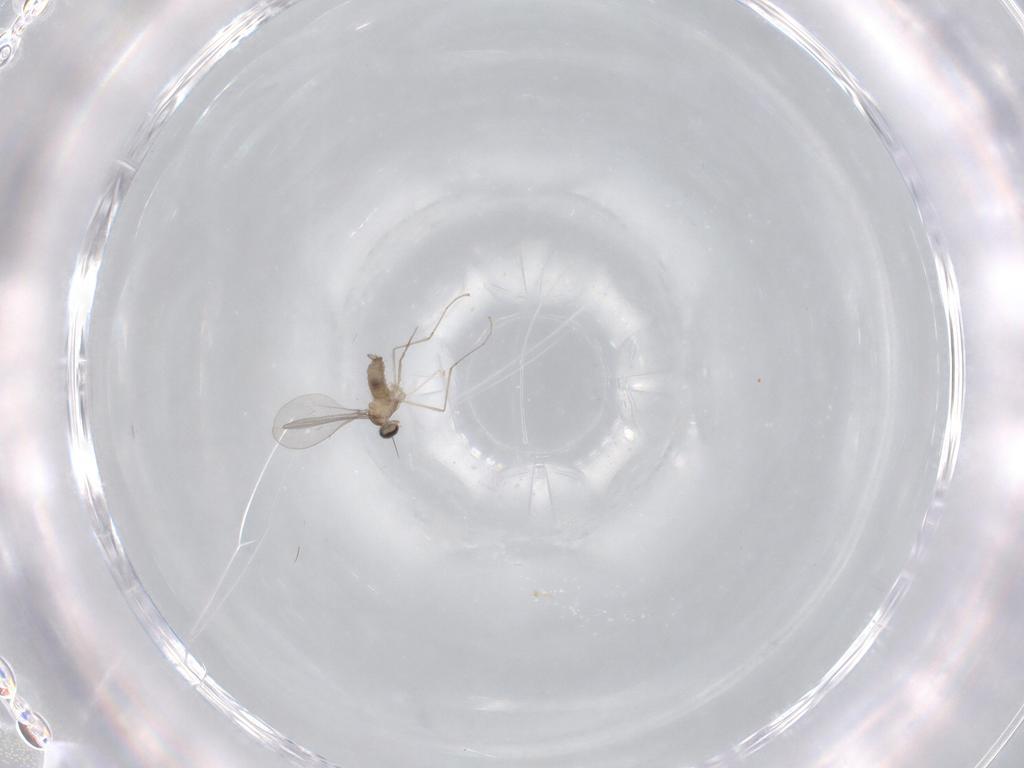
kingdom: Animalia
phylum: Arthropoda
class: Insecta
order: Diptera
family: Cecidomyiidae
